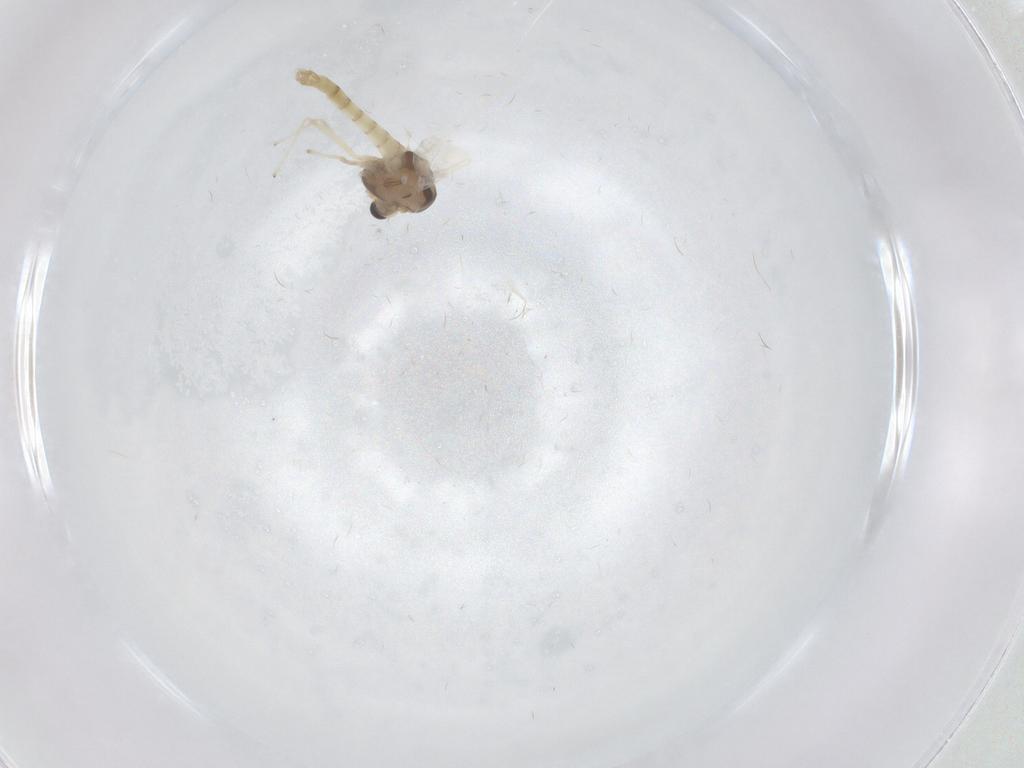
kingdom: Animalia
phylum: Arthropoda
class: Insecta
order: Diptera
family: Chironomidae
